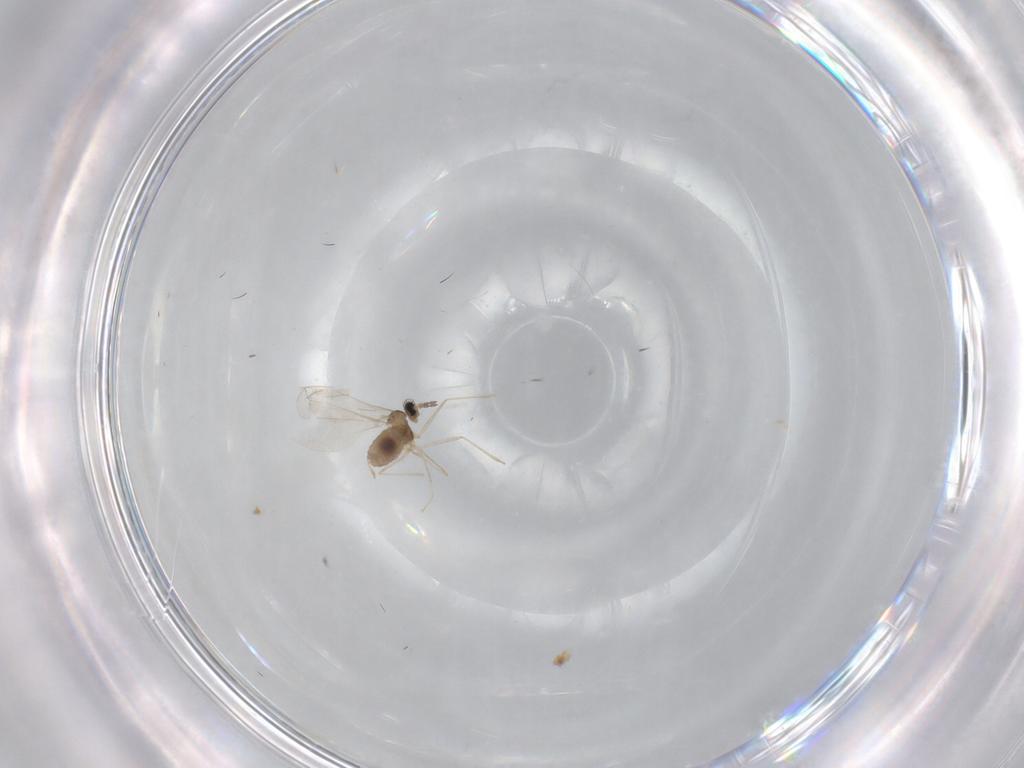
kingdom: Animalia
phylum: Arthropoda
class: Insecta
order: Diptera
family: Cecidomyiidae
